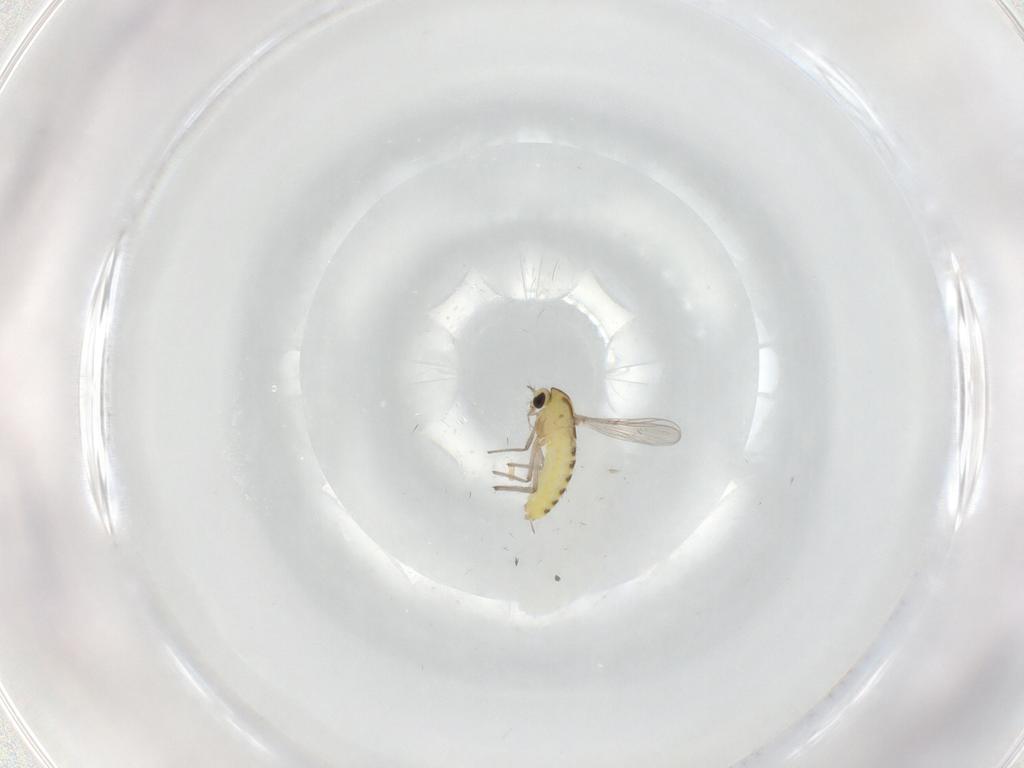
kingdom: Animalia
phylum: Arthropoda
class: Insecta
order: Diptera
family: Chironomidae
